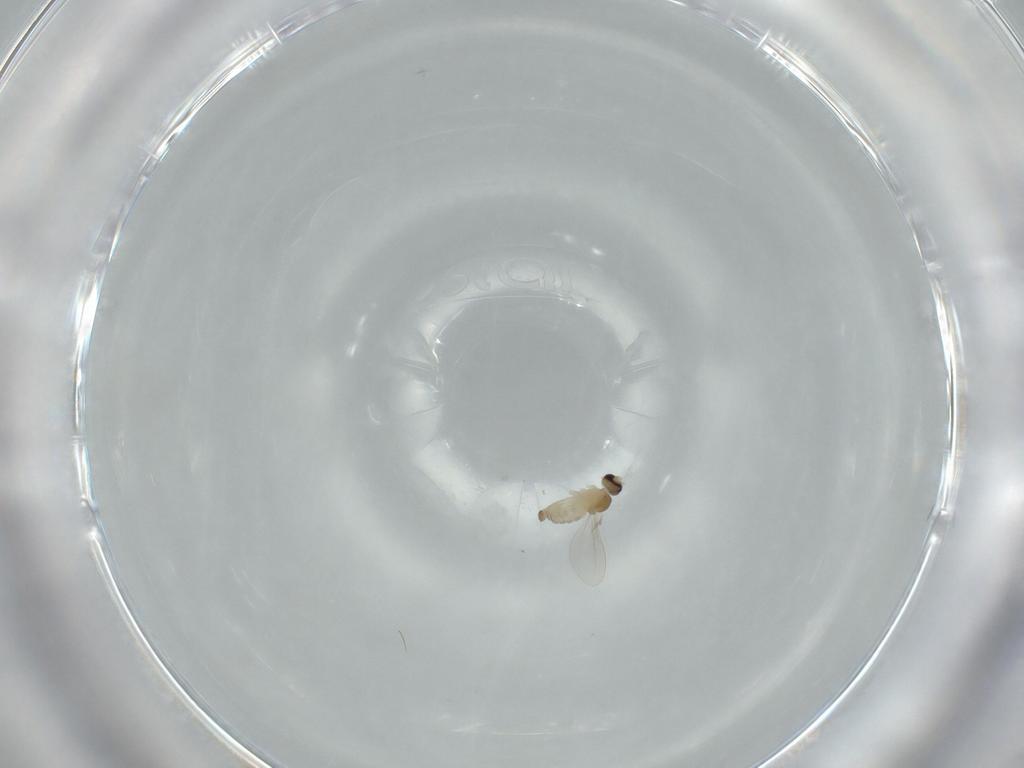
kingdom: Animalia
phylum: Arthropoda
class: Insecta
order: Diptera
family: Cecidomyiidae
